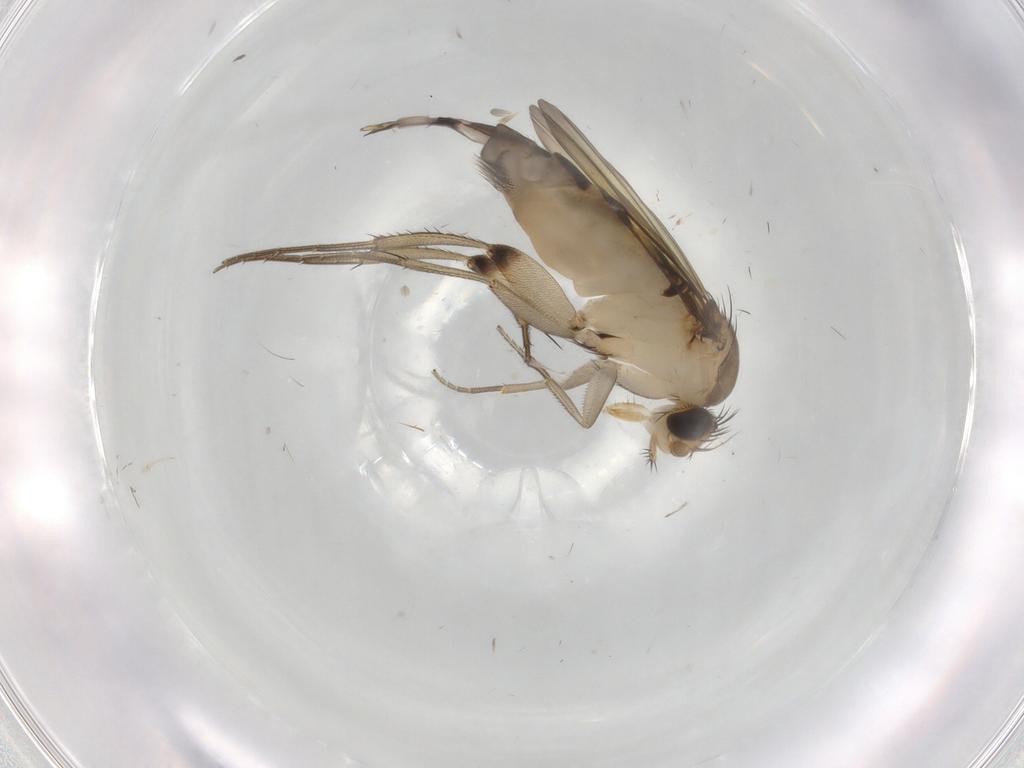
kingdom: Animalia
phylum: Arthropoda
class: Insecta
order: Diptera
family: Phoridae
